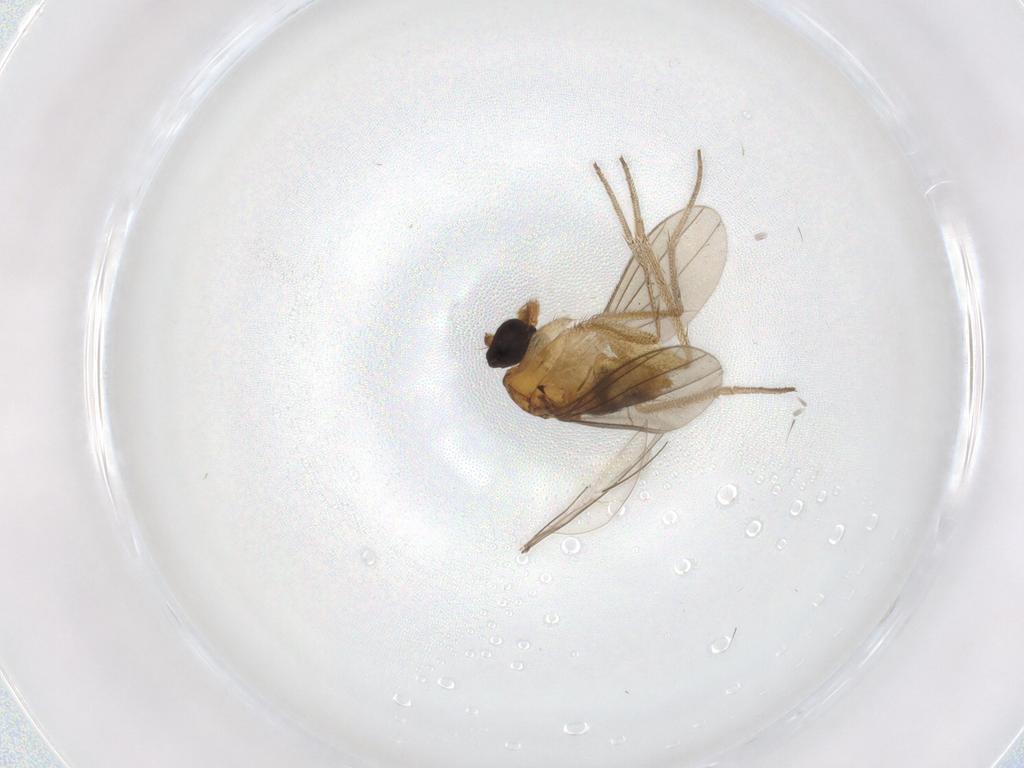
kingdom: Animalia
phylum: Arthropoda
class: Insecta
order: Diptera
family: Dolichopodidae
